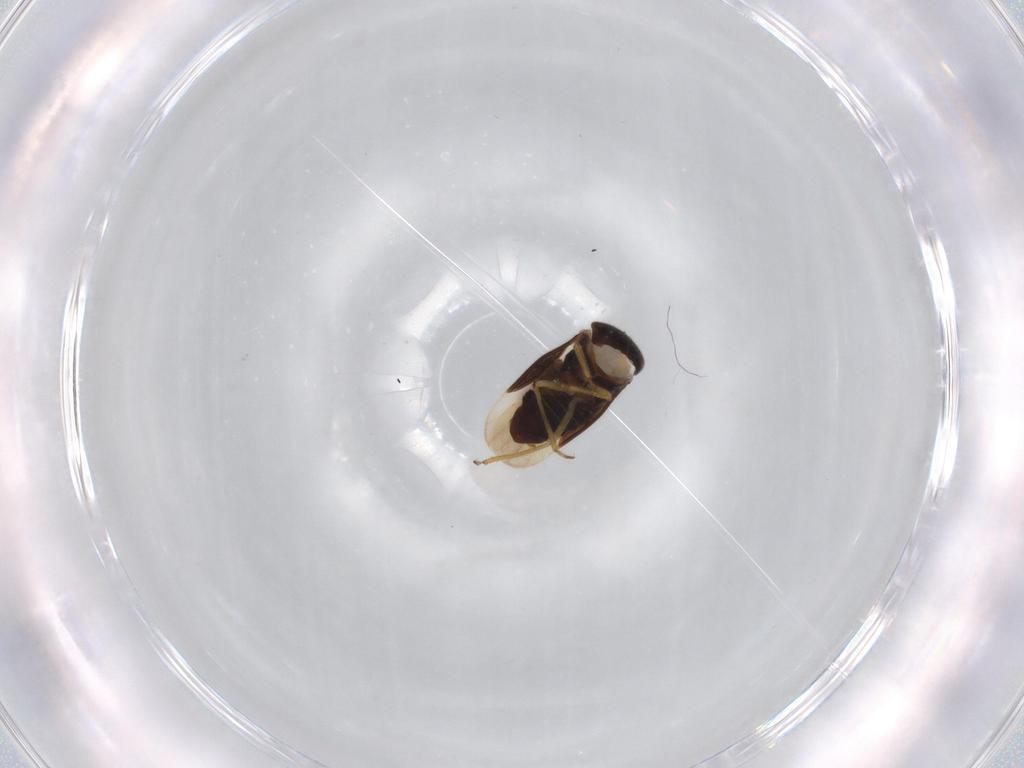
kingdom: Animalia
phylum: Arthropoda
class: Insecta
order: Hemiptera
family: Schizopteridae
